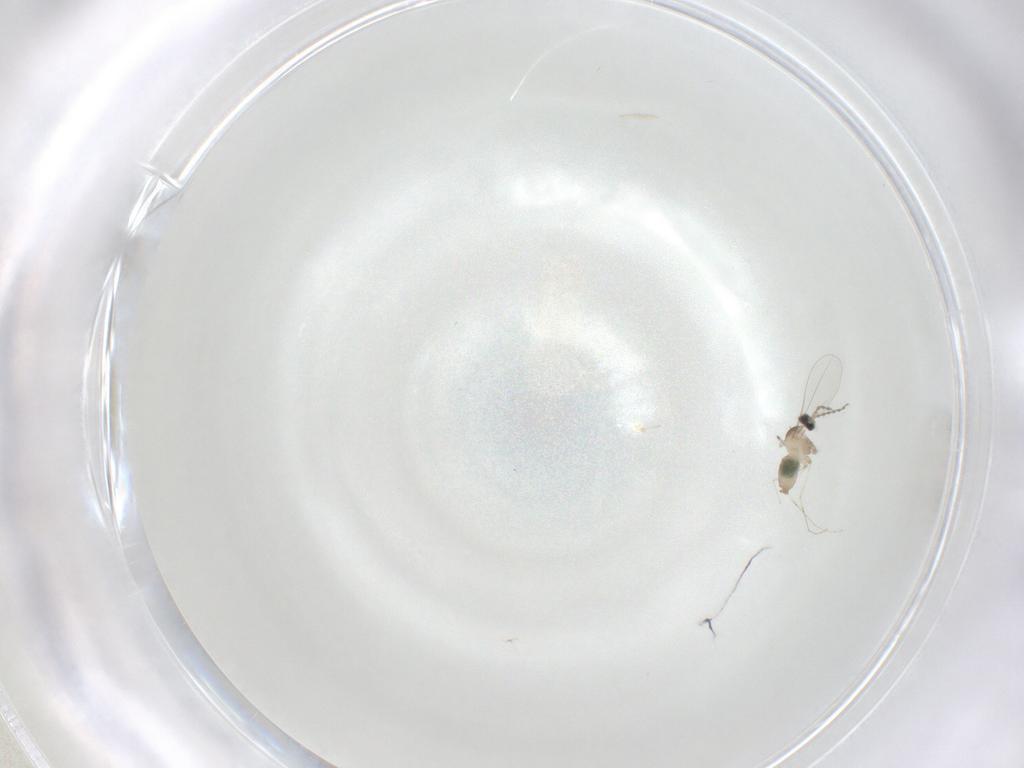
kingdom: Animalia
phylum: Arthropoda
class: Insecta
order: Diptera
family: Cecidomyiidae
